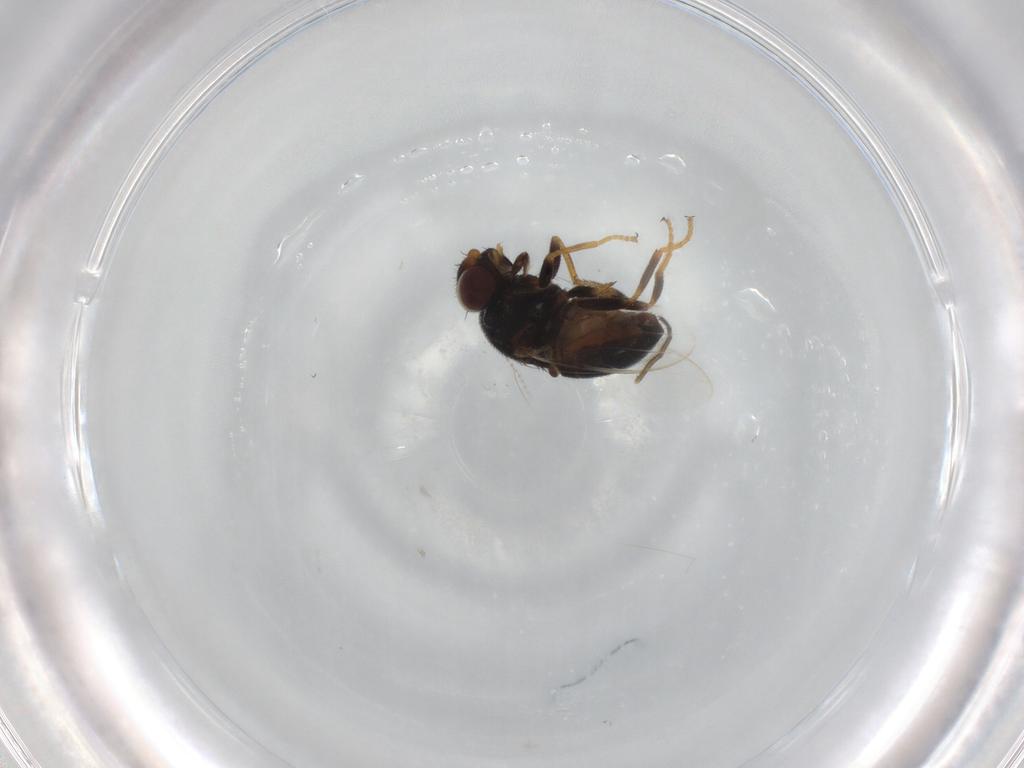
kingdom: Animalia
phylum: Arthropoda
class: Insecta
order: Diptera
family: Chloropidae
